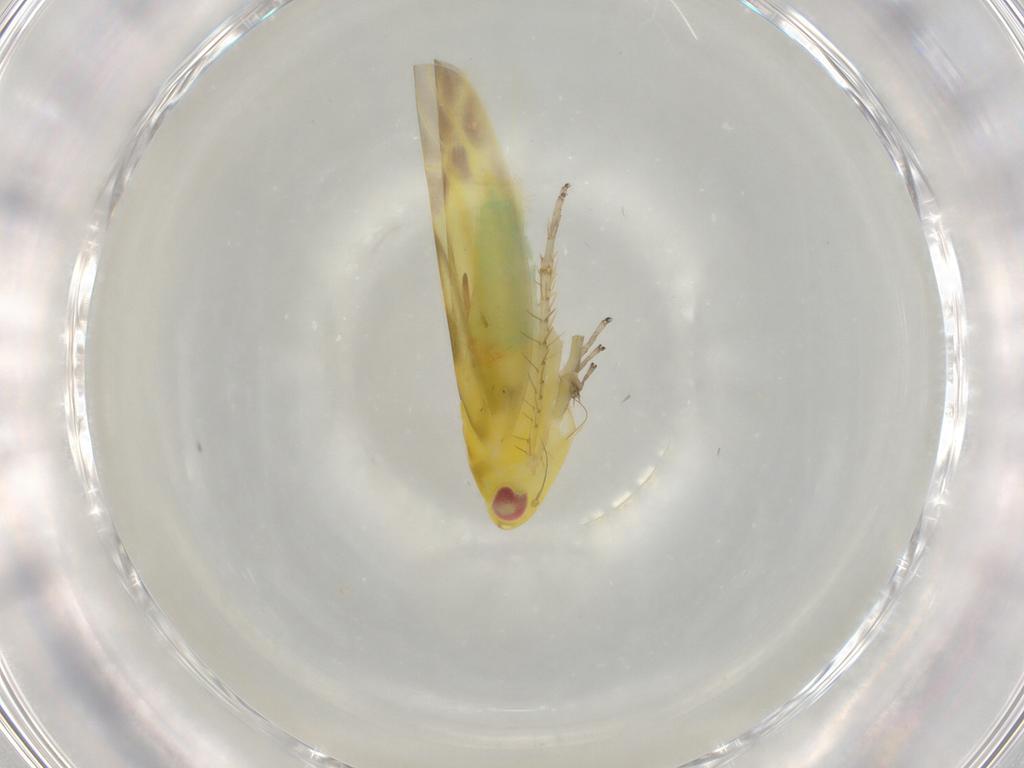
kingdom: Animalia
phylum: Arthropoda
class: Insecta
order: Hemiptera
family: Cicadellidae
